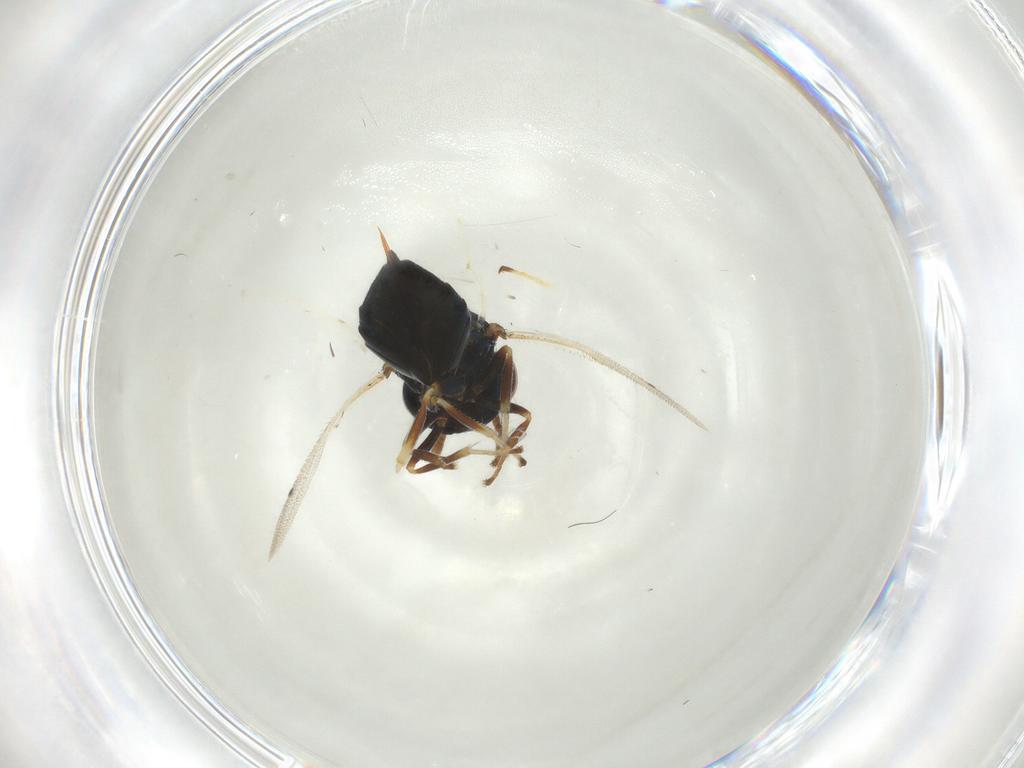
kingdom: Animalia
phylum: Arthropoda
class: Insecta
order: Hymenoptera
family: Pteromalidae
